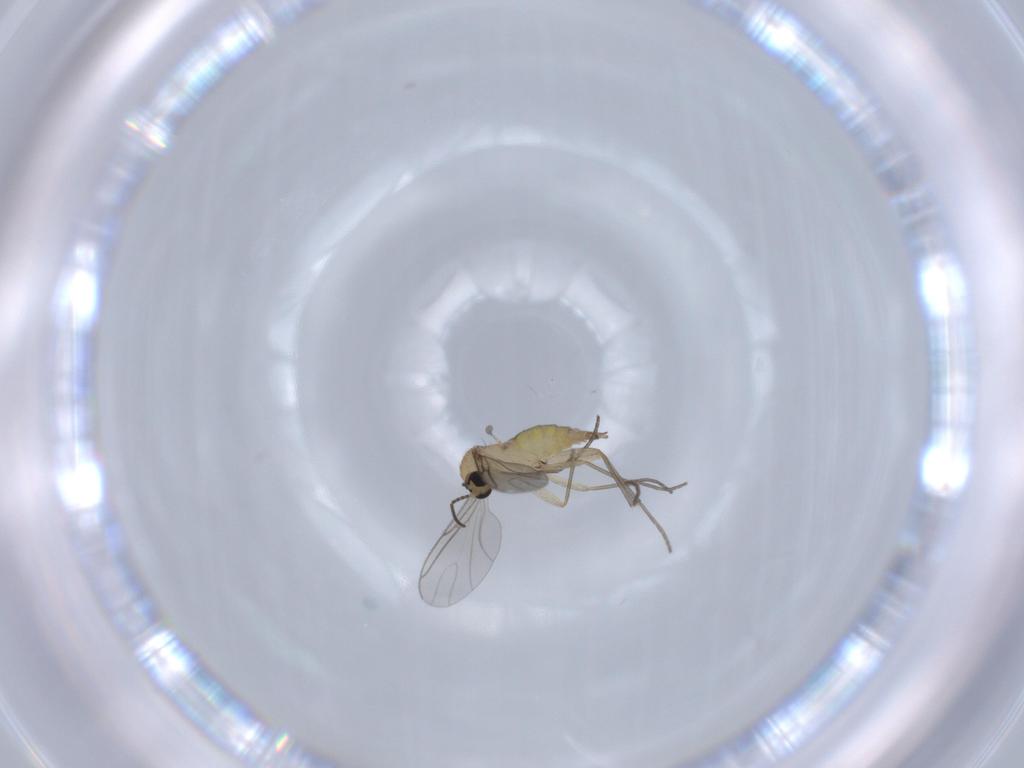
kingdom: Animalia
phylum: Arthropoda
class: Insecta
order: Diptera
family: Sciaridae
